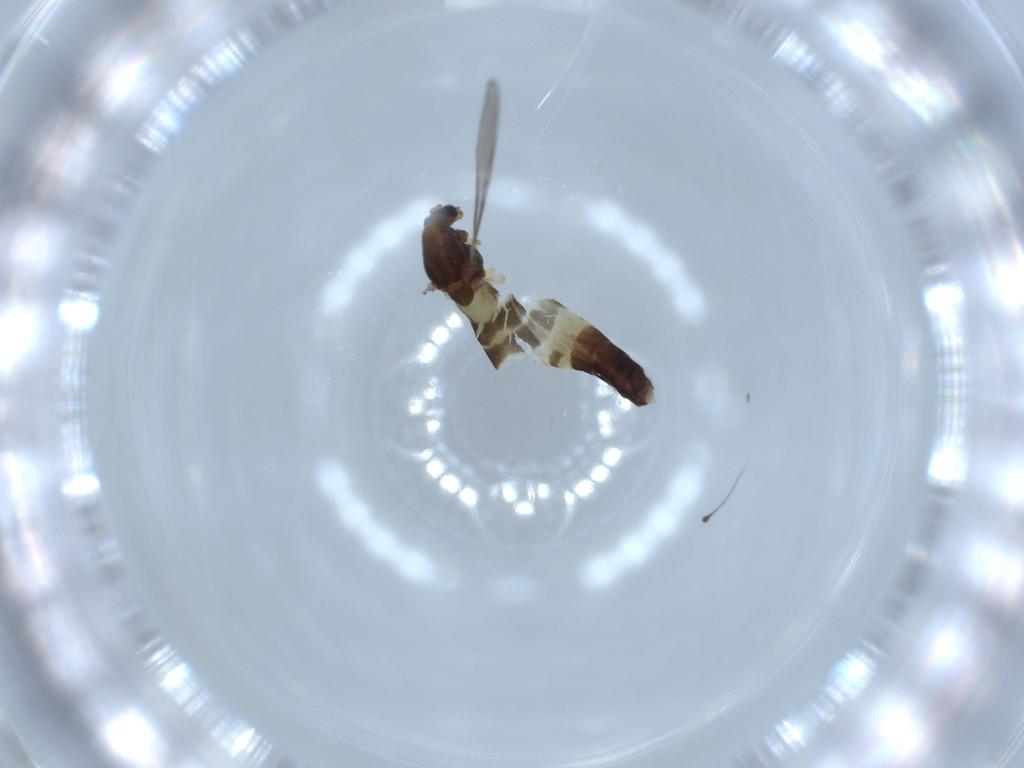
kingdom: Animalia
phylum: Arthropoda
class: Insecta
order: Diptera
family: Chironomidae
